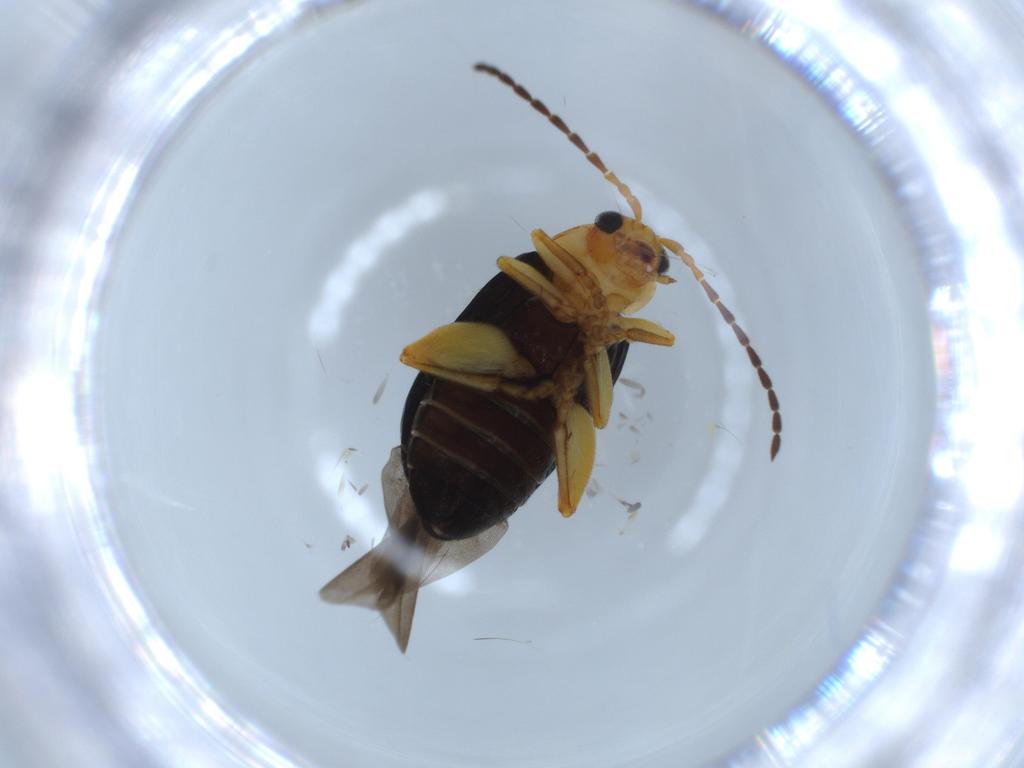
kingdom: Animalia
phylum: Arthropoda
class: Insecta
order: Coleoptera
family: Chrysomelidae
